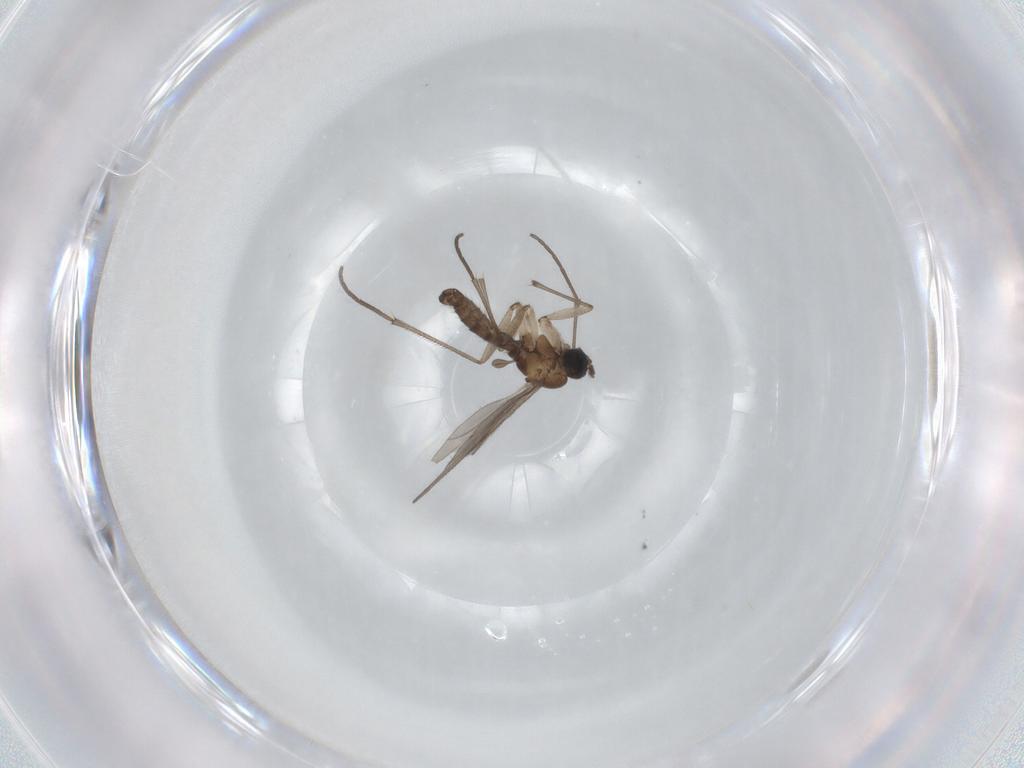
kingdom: Animalia
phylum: Arthropoda
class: Insecta
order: Diptera
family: Sciaridae
